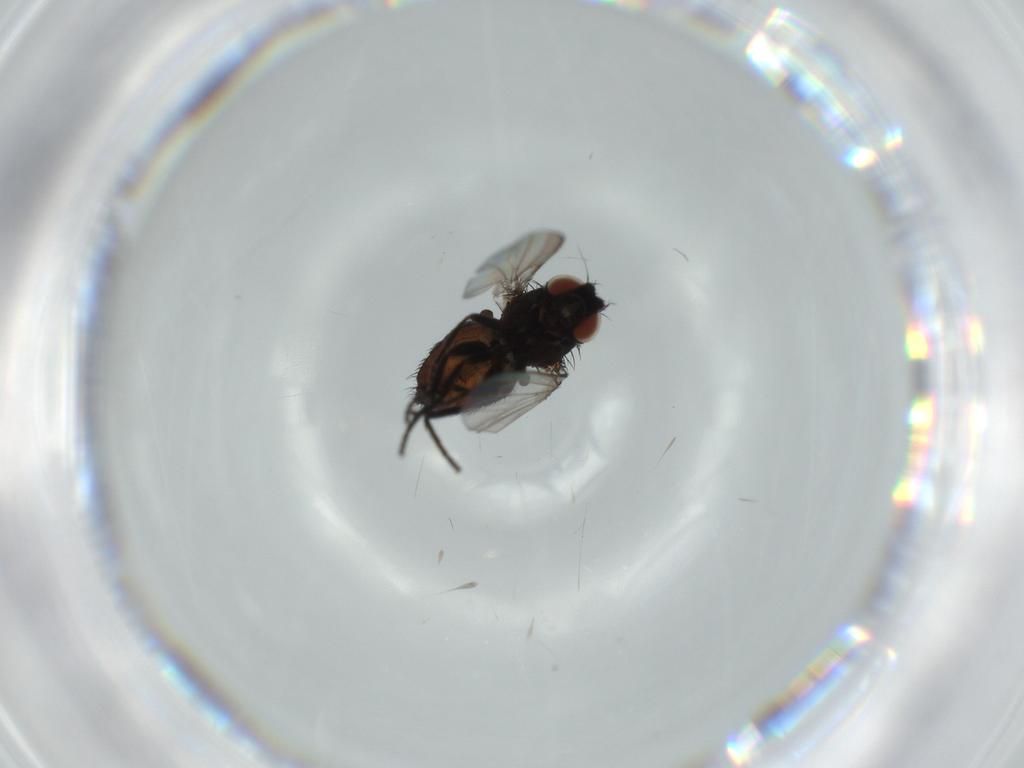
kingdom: Animalia
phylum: Arthropoda
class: Insecta
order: Diptera
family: Milichiidae
